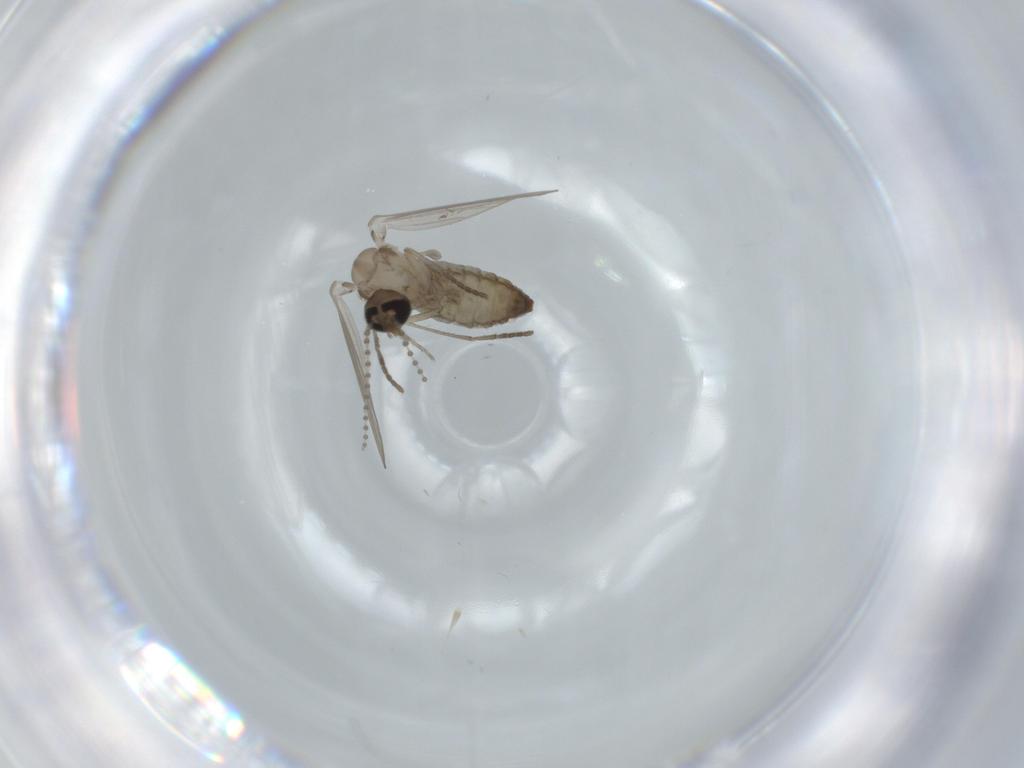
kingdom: Animalia
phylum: Arthropoda
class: Insecta
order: Diptera
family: Psychodidae
